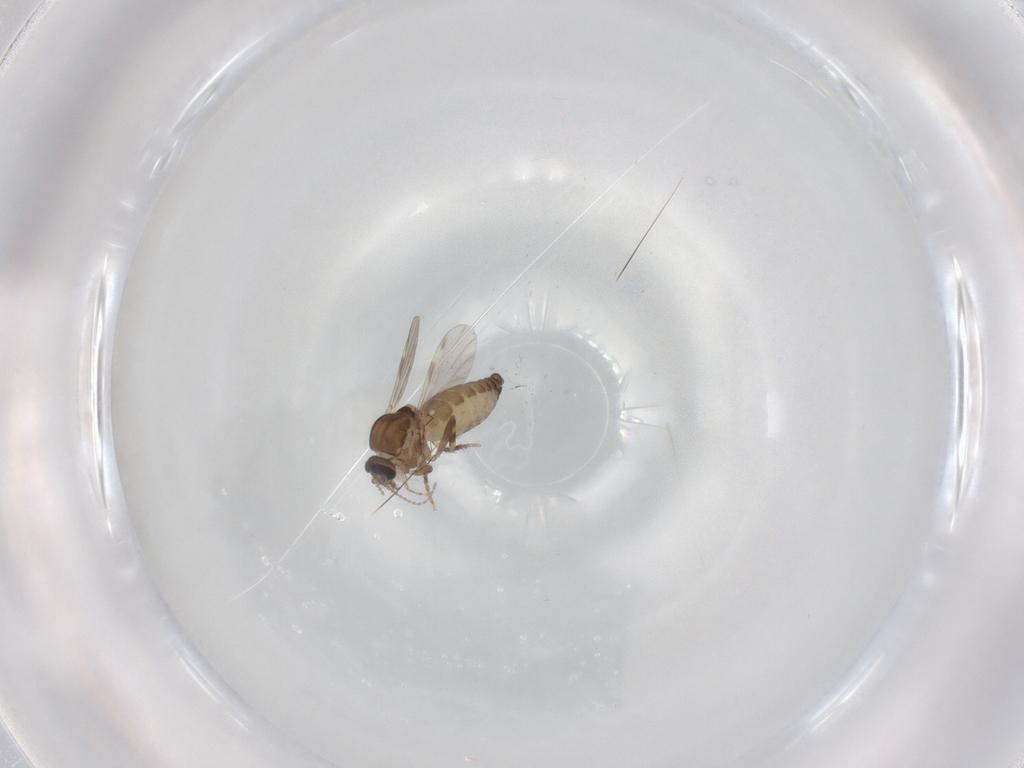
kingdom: Animalia
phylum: Arthropoda
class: Insecta
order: Diptera
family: Ceratopogonidae
